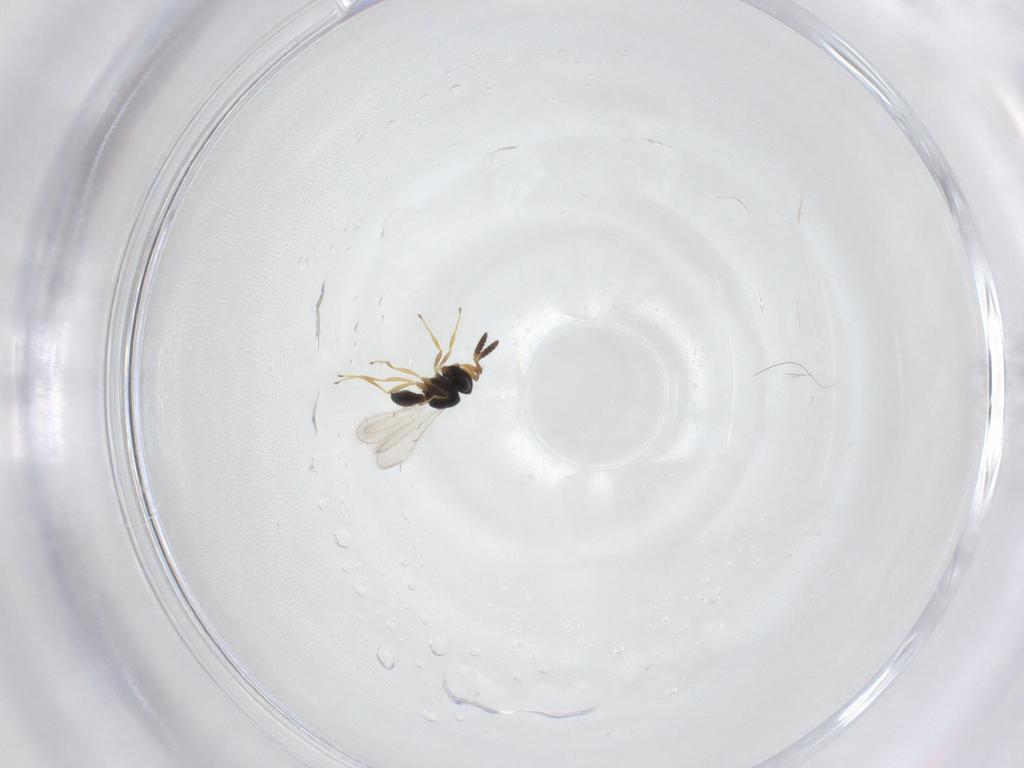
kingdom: Animalia
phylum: Arthropoda
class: Insecta
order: Hymenoptera
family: Scelionidae
